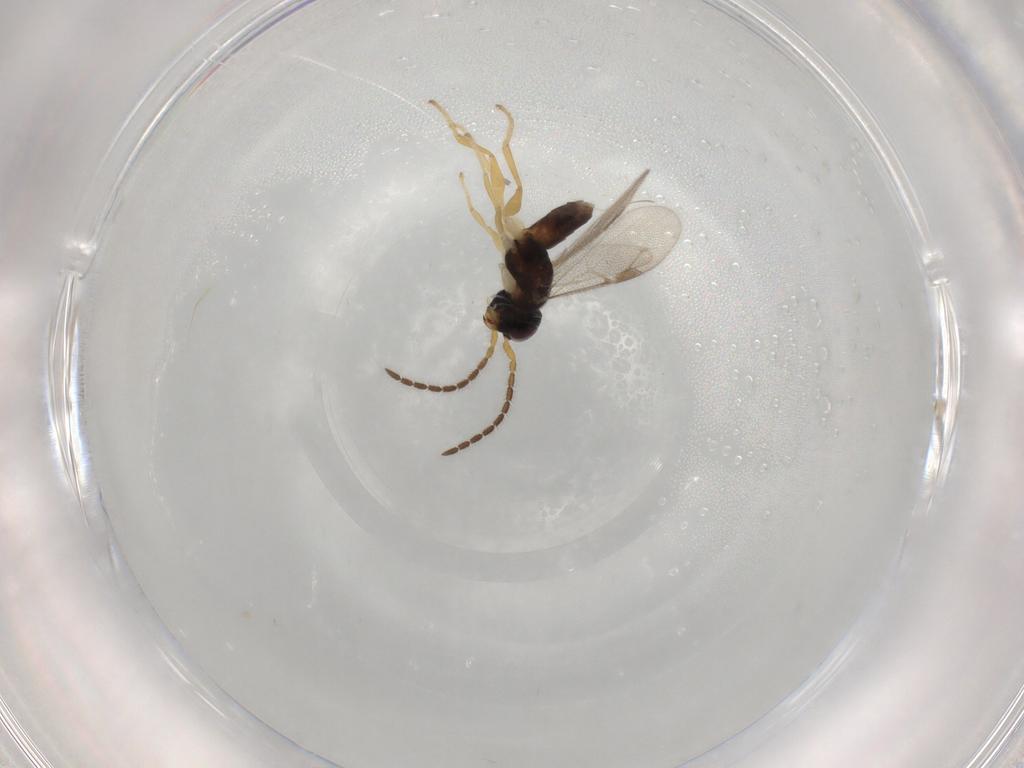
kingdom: Animalia
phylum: Arthropoda
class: Insecta
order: Hymenoptera
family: Dryinidae
